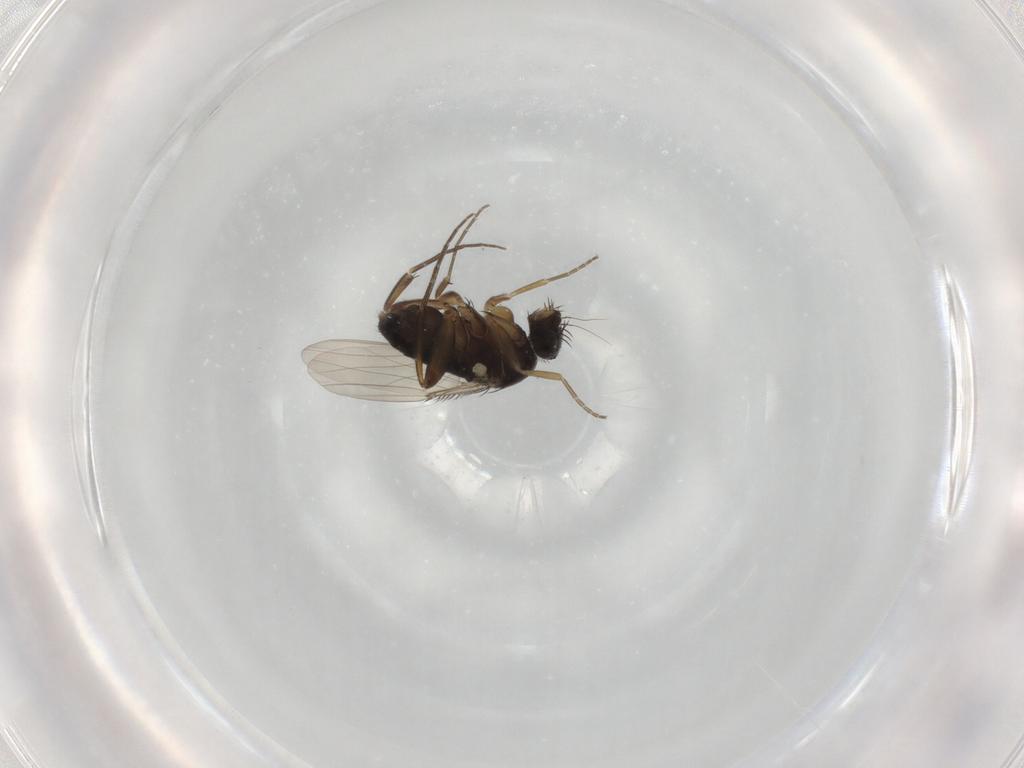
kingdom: Animalia
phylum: Arthropoda
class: Insecta
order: Diptera
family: Phoridae
